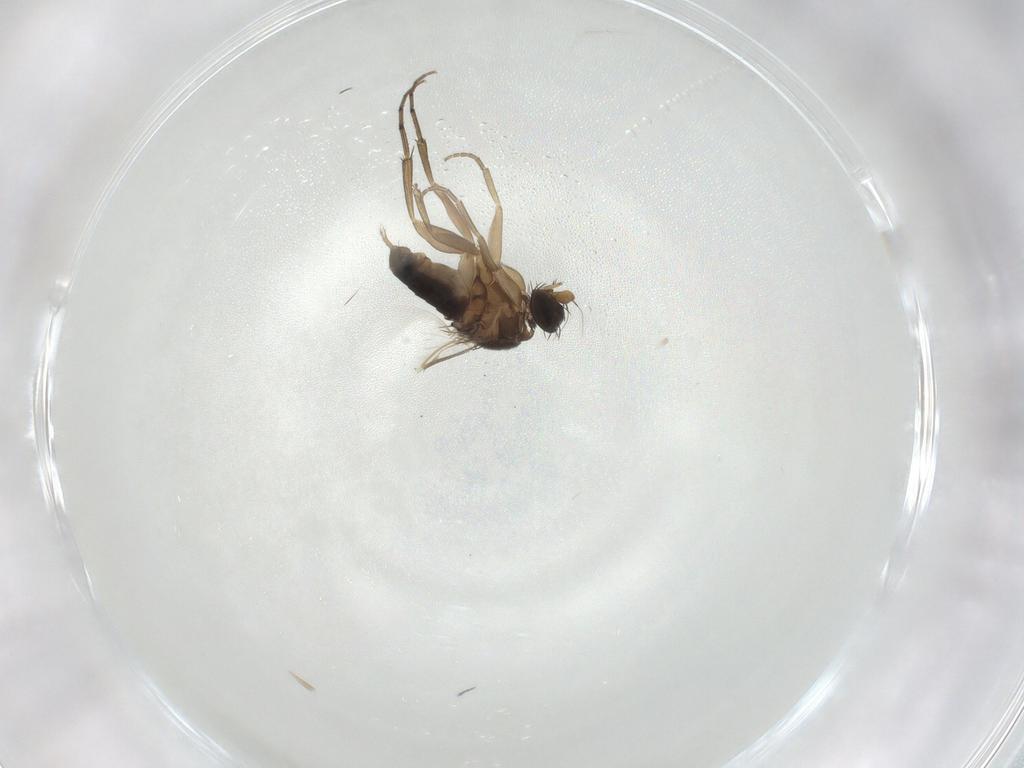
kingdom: Animalia
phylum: Arthropoda
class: Insecta
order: Diptera
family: Phoridae
